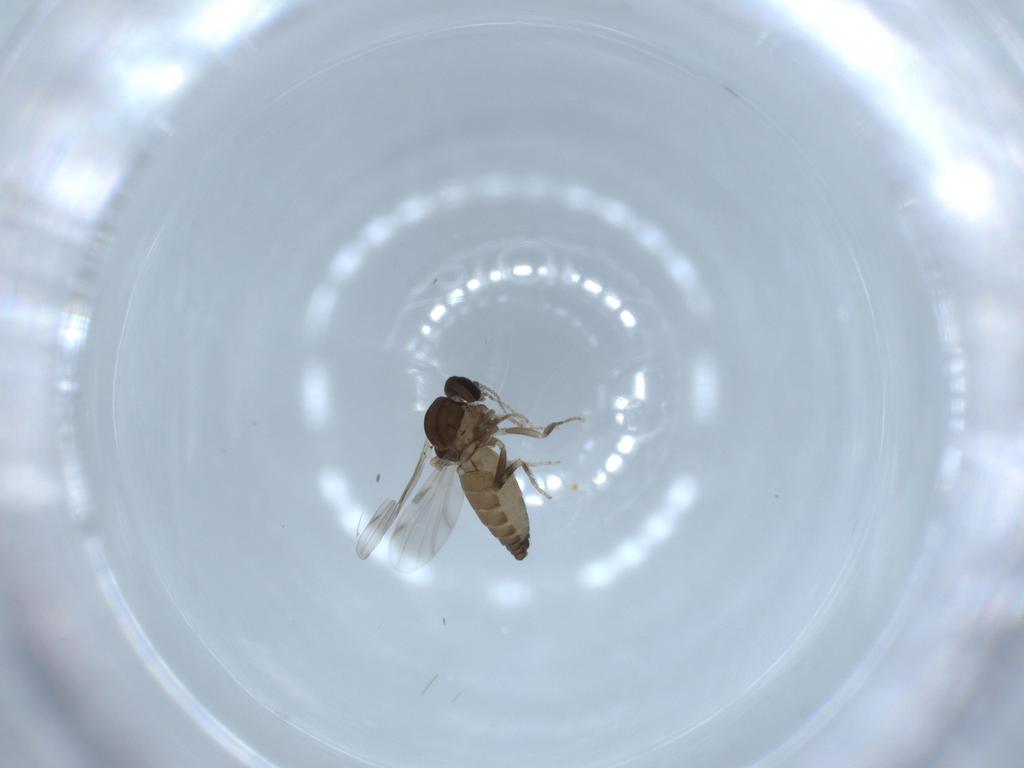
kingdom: Animalia
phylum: Arthropoda
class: Insecta
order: Diptera
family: Ceratopogonidae
